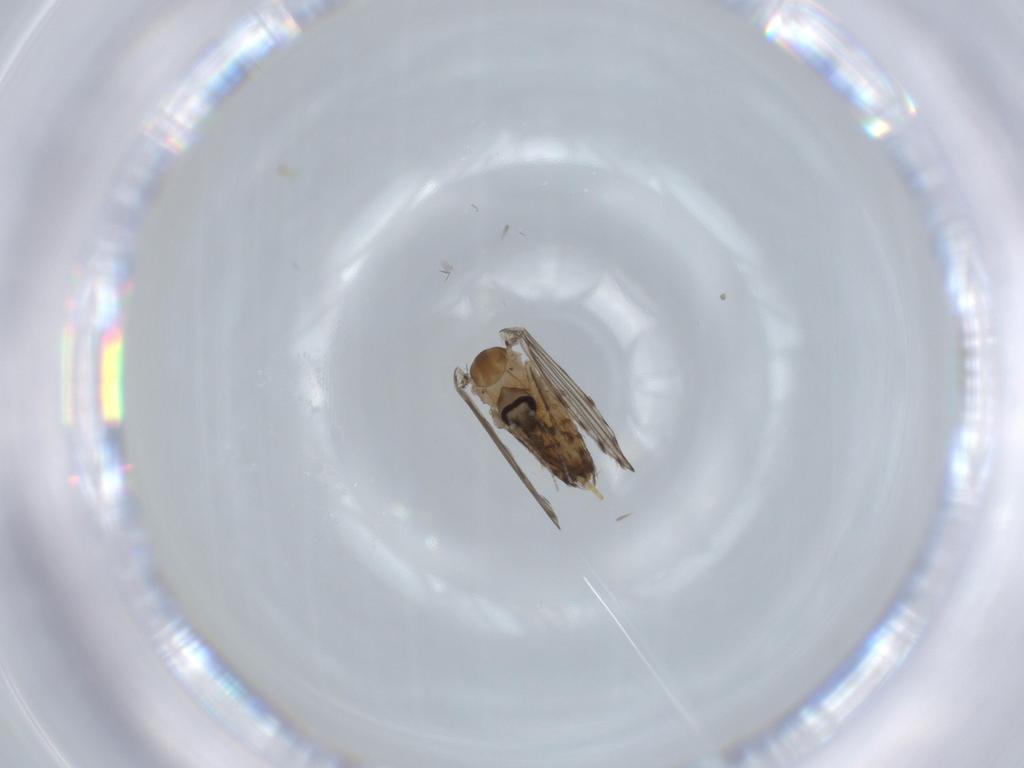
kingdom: Animalia
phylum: Arthropoda
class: Insecta
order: Diptera
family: Psychodidae
